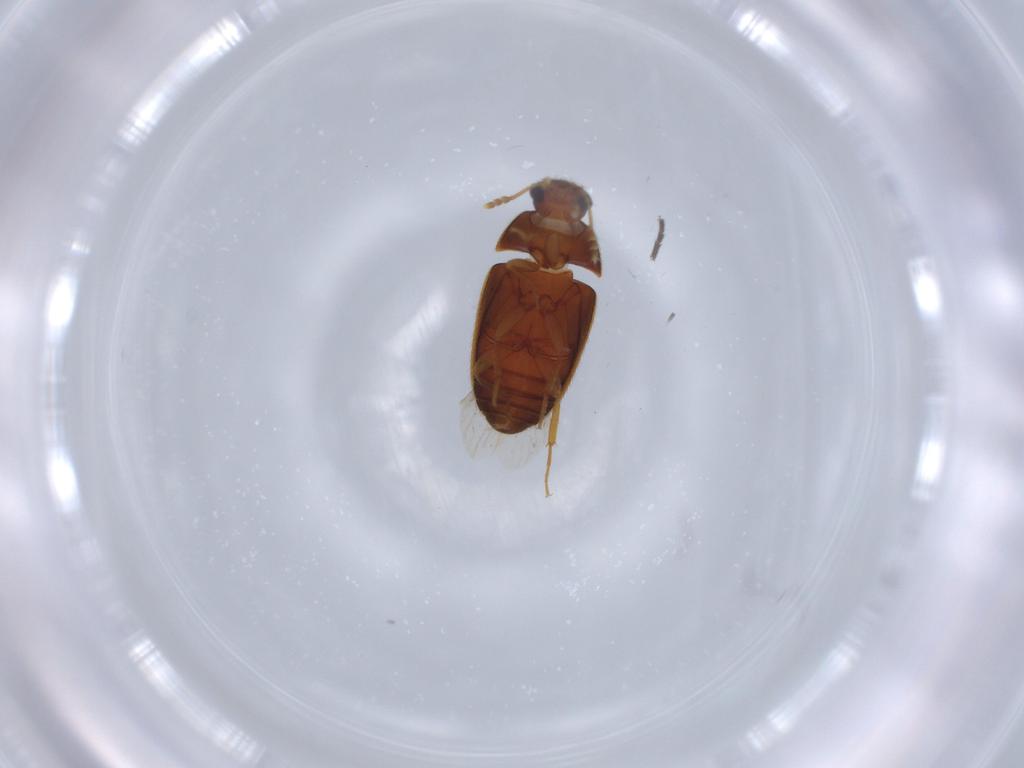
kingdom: Animalia
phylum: Arthropoda
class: Insecta
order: Coleoptera
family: Mycetophagidae
